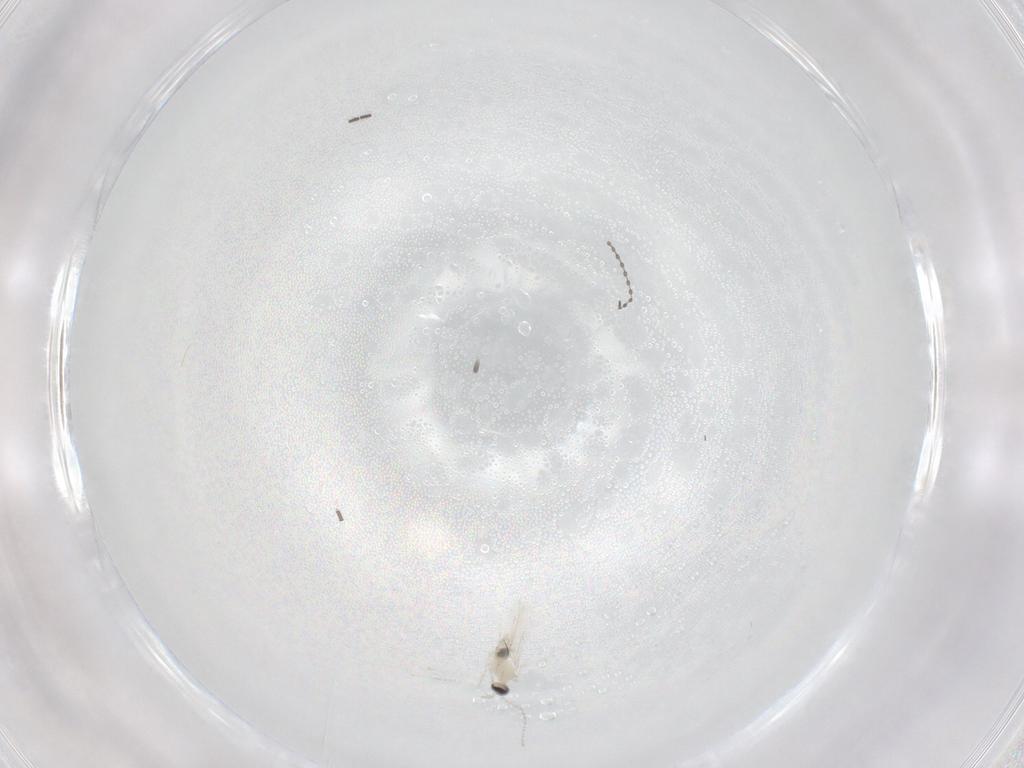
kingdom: Animalia
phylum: Arthropoda
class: Insecta
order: Diptera
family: Cecidomyiidae
